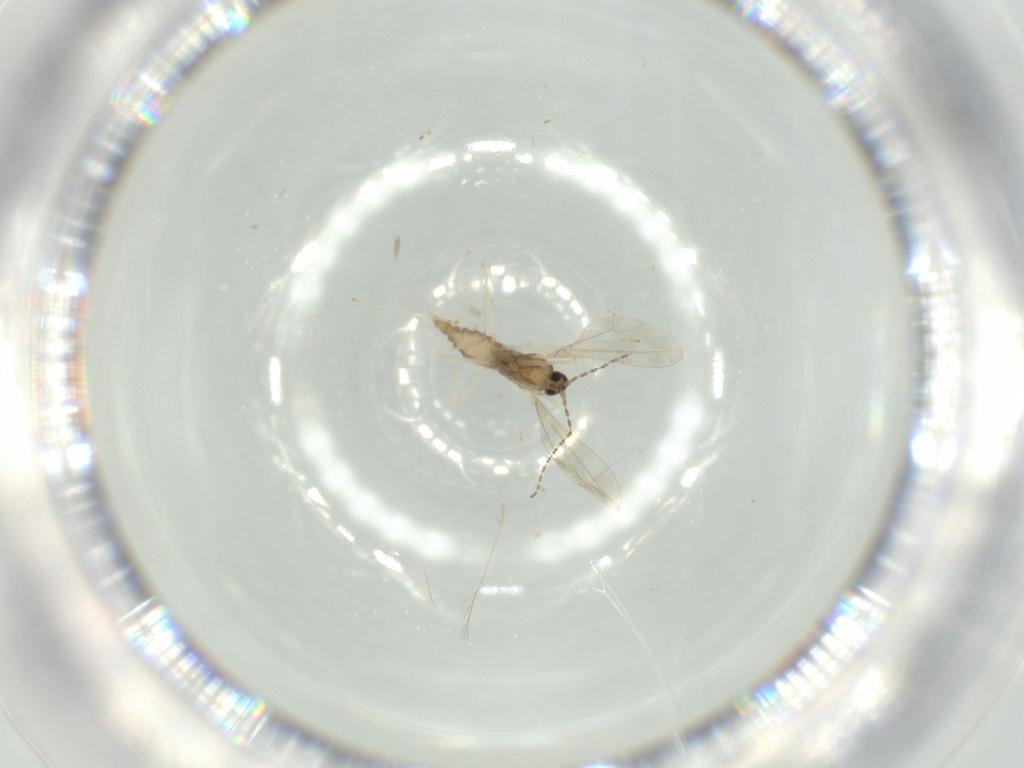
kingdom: Animalia
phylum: Arthropoda
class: Insecta
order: Diptera
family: Cecidomyiidae
